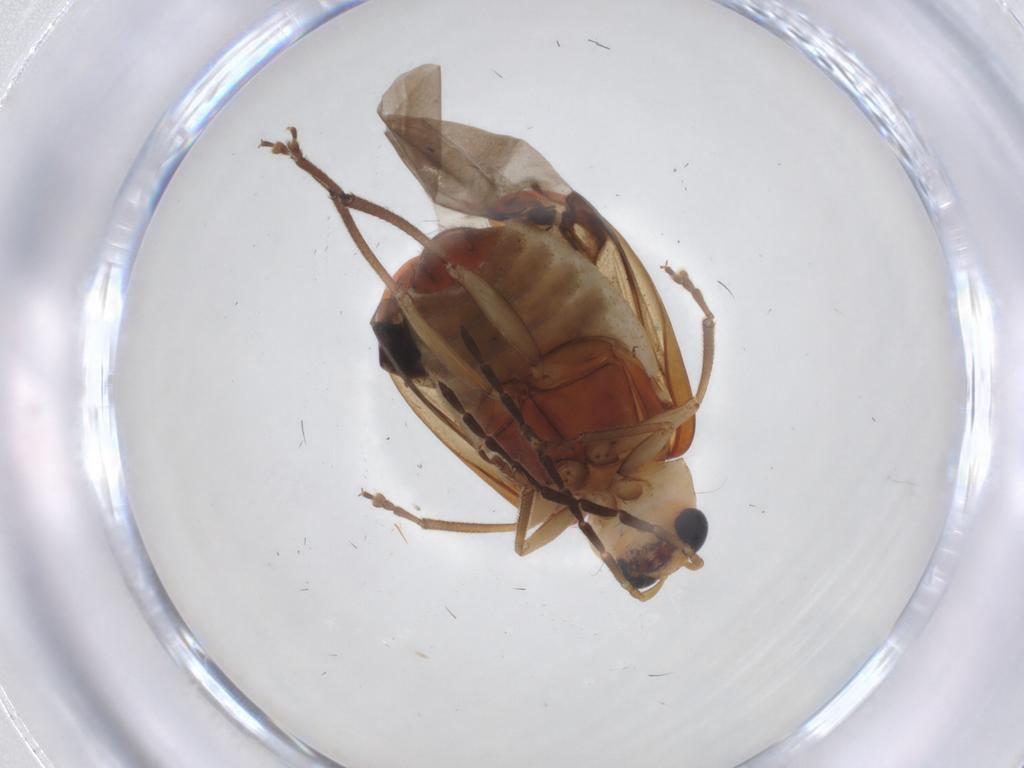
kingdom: Animalia
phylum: Arthropoda
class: Insecta
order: Coleoptera
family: Chrysomelidae
